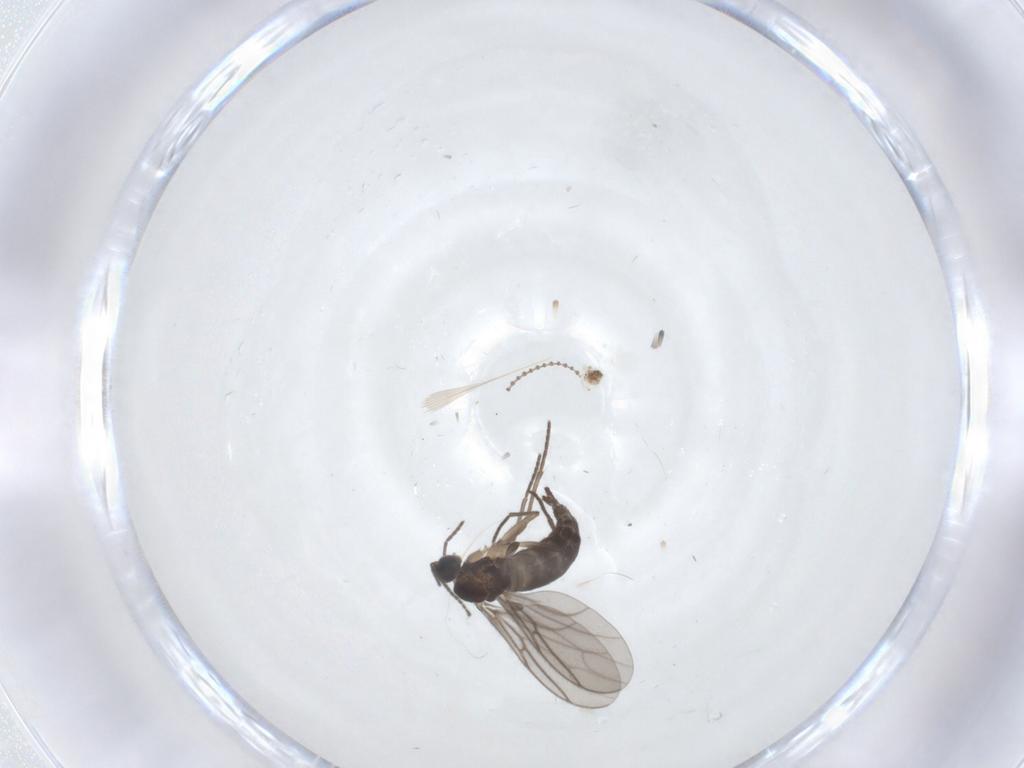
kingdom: Animalia
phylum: Arthropoda
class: Insecta
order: Diptera
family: Sciaridae
